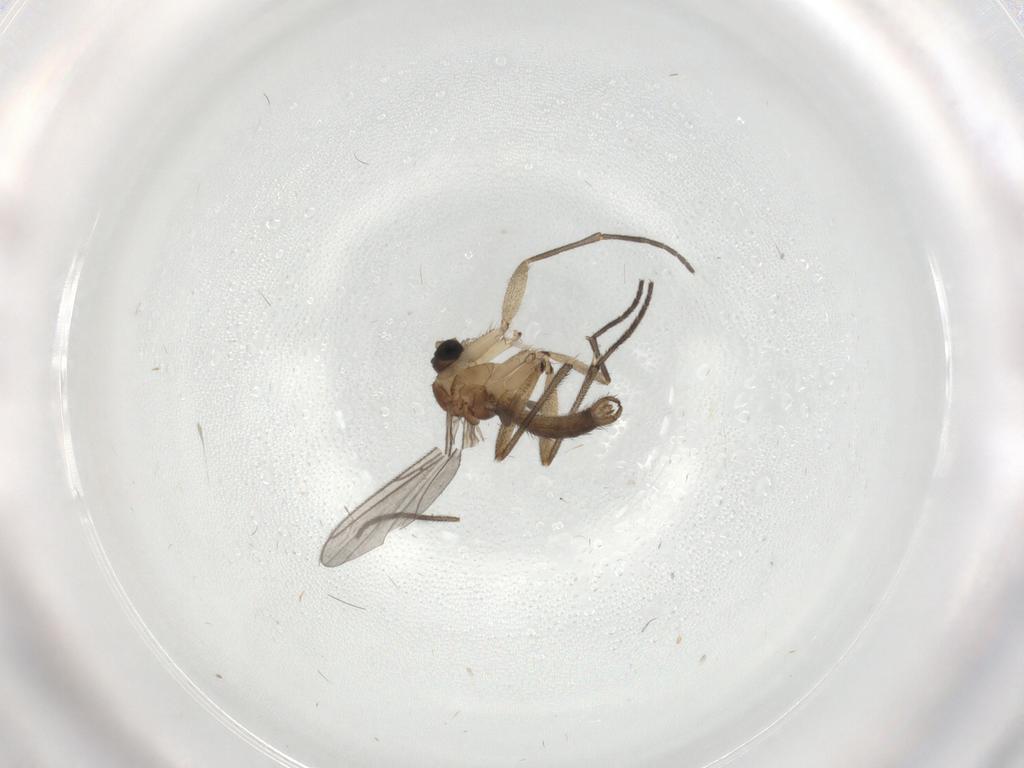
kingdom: Animalia
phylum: Arthropoda
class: Insecta
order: Diptera
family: Sciaridae
